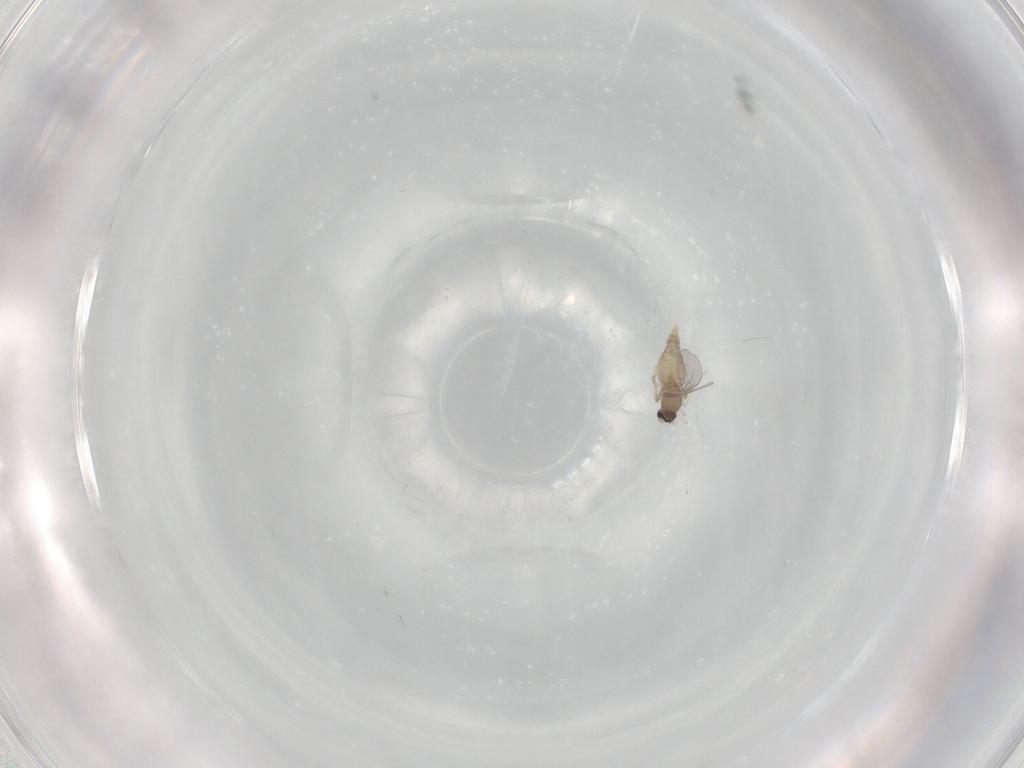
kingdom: Animalia
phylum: Arthropoda
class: Insecta
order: Diptera
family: Cecidomyiidae
